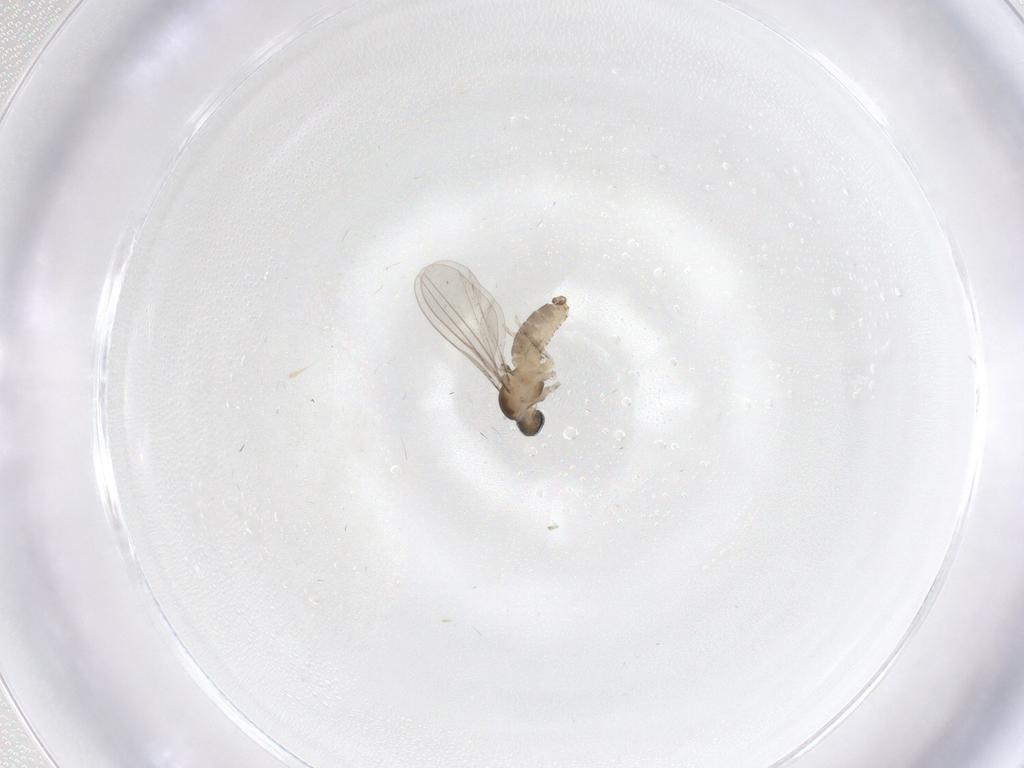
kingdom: Animalia
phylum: Arthropoda
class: Insecta
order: Diptera
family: Cecidomyiidae
